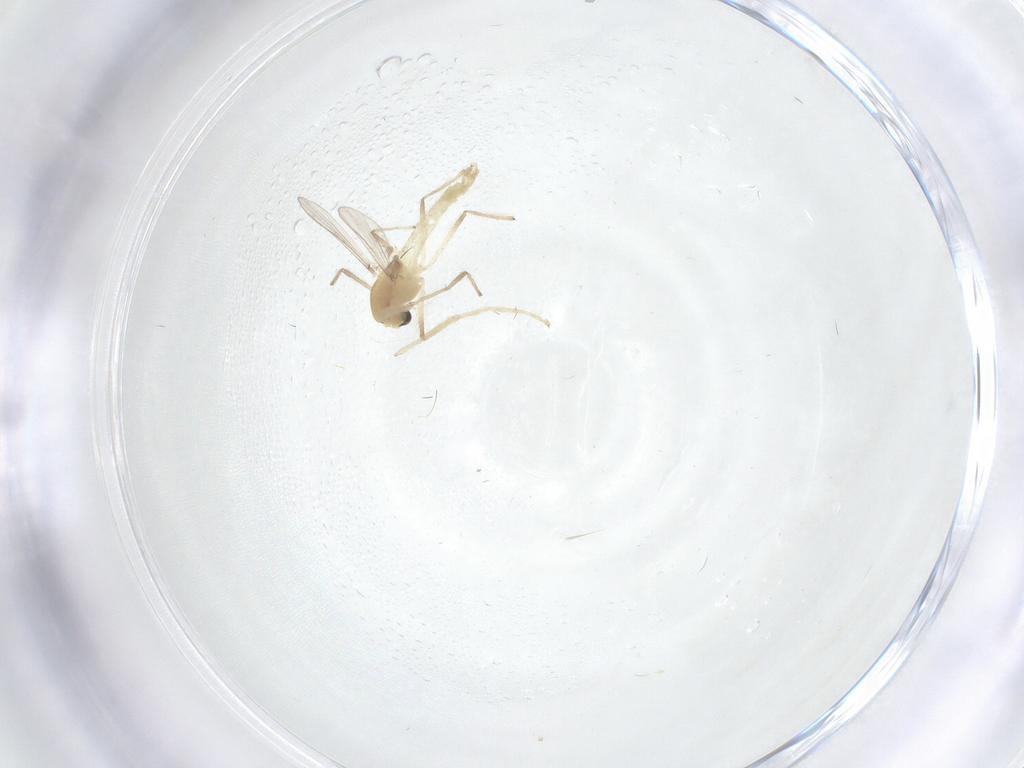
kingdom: Animalia
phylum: Arthropoda
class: Insecta
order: Diptera
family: Chironomidae
